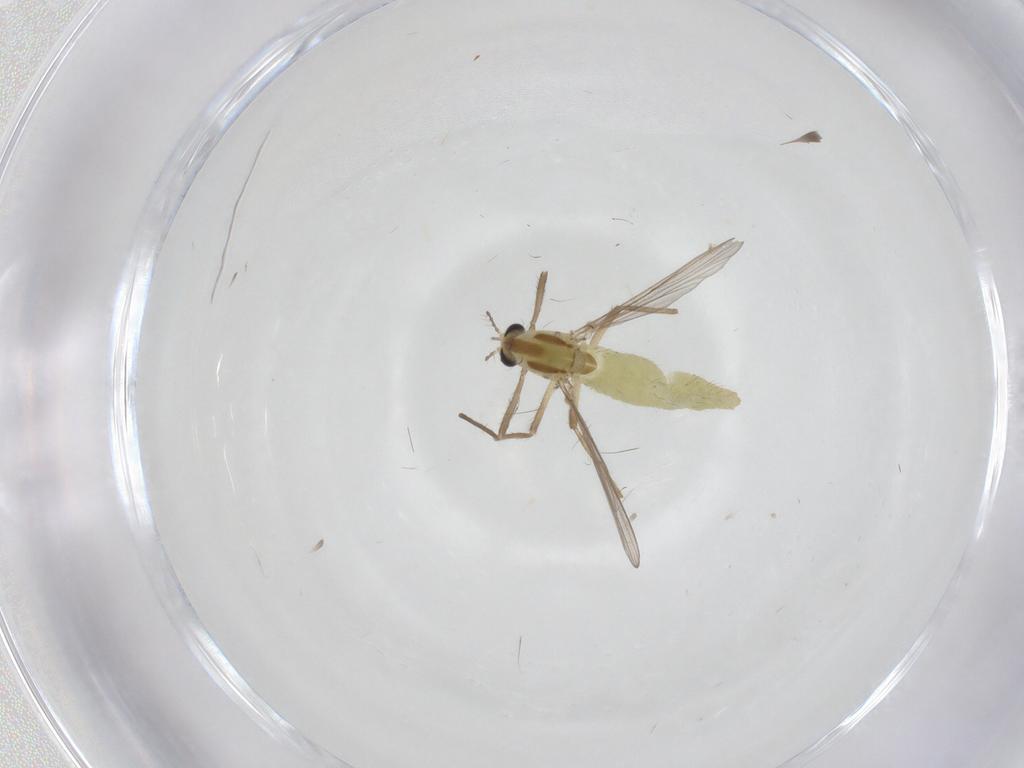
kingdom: Animalia
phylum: Arthropoda
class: Insecta
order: Diptera
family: Chironomidae
